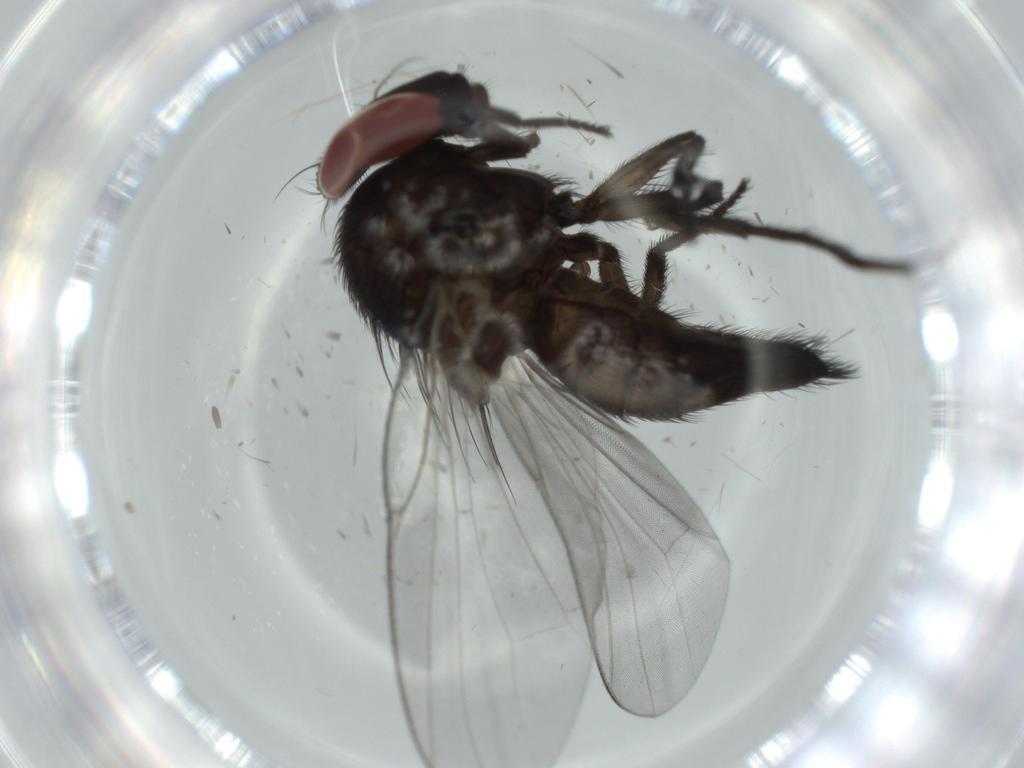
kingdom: Animalia
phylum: Arthropoda
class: Insecta
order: Diptera
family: Lonchaeidae
